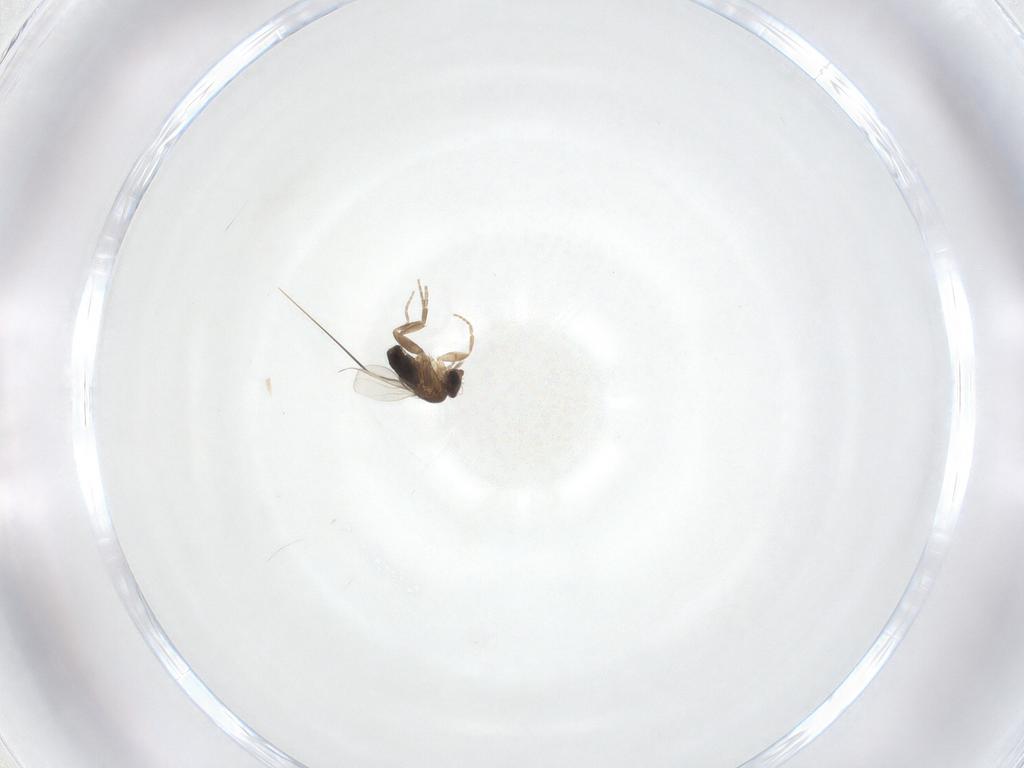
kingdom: Animalia
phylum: Arthropoda
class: Insecta
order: Diptera
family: Phoridae
